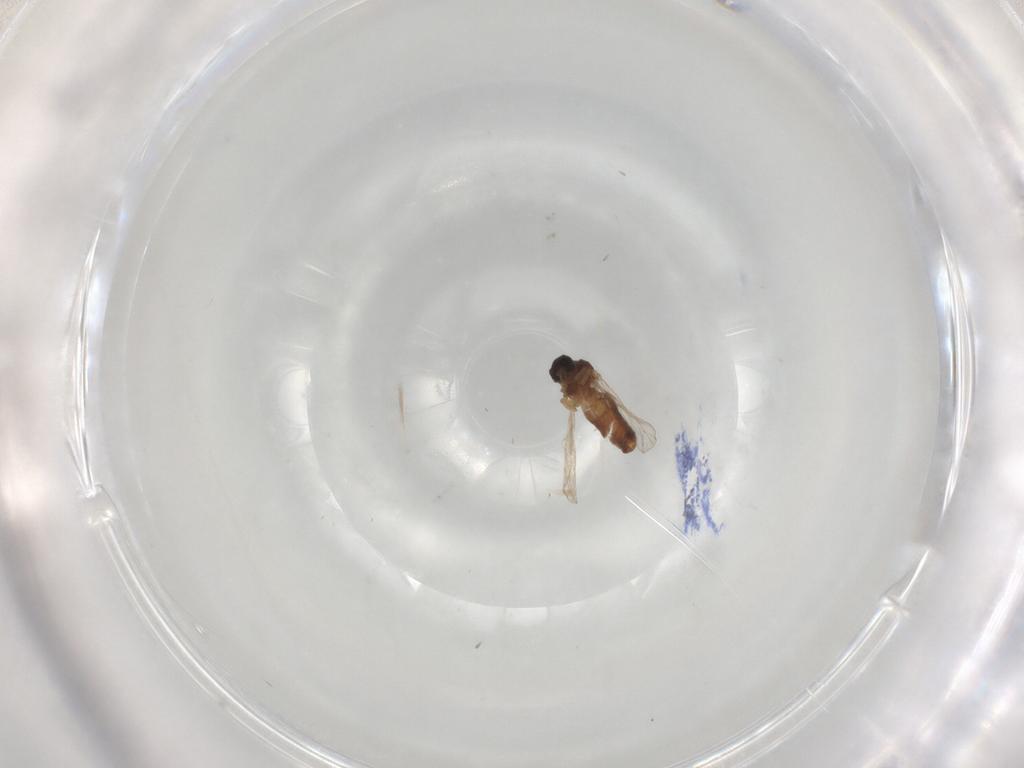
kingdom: Animalia
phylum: Arthropoda
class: Insecta
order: Diptera
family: Ceratopogonidae
